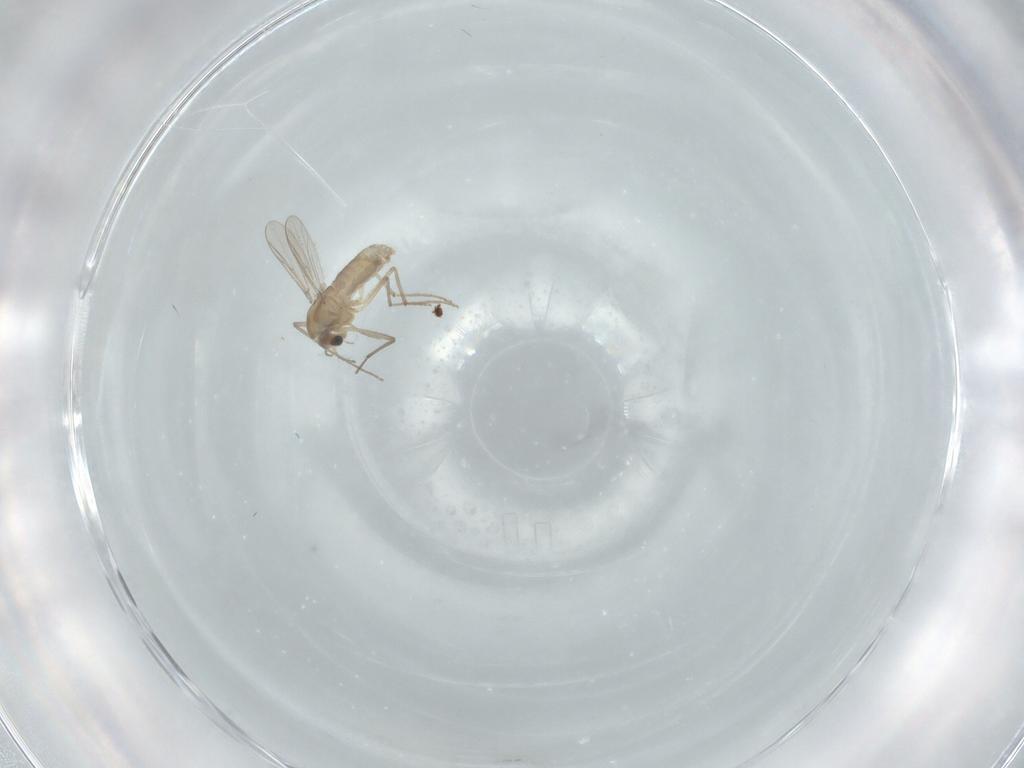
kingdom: Animalia
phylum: Arthropoda
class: Insecta
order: Diptera
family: Chironomidae
